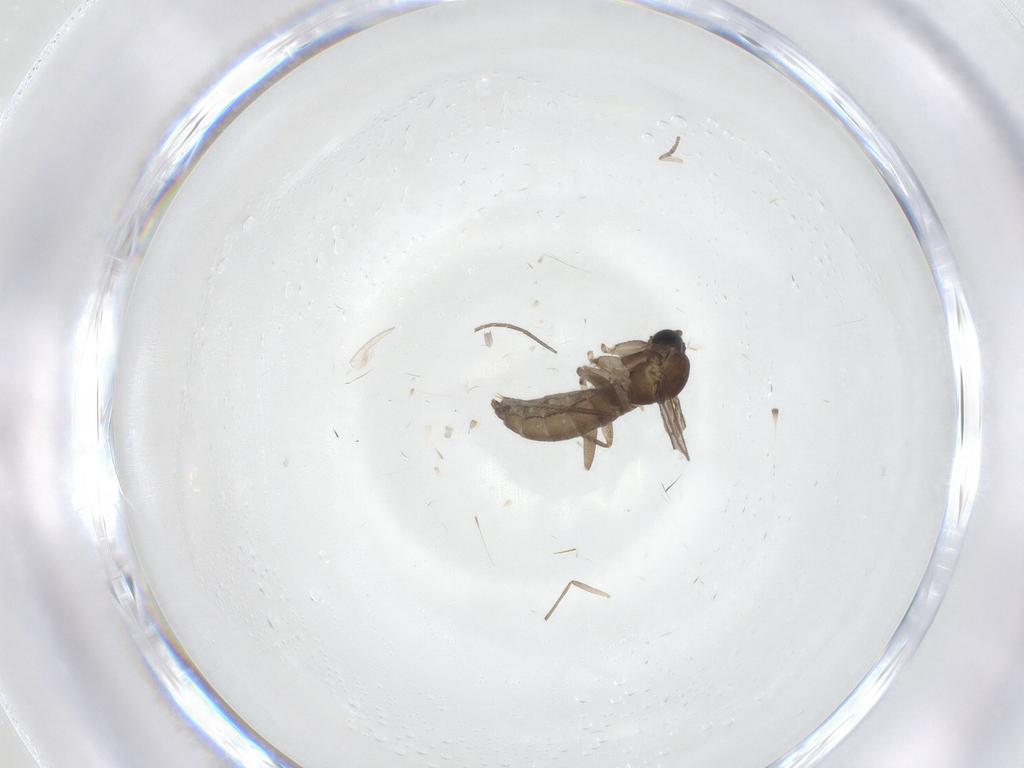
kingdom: Animalia
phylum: Arthropoda
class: Insecta
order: Diptera
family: Sciaridae
